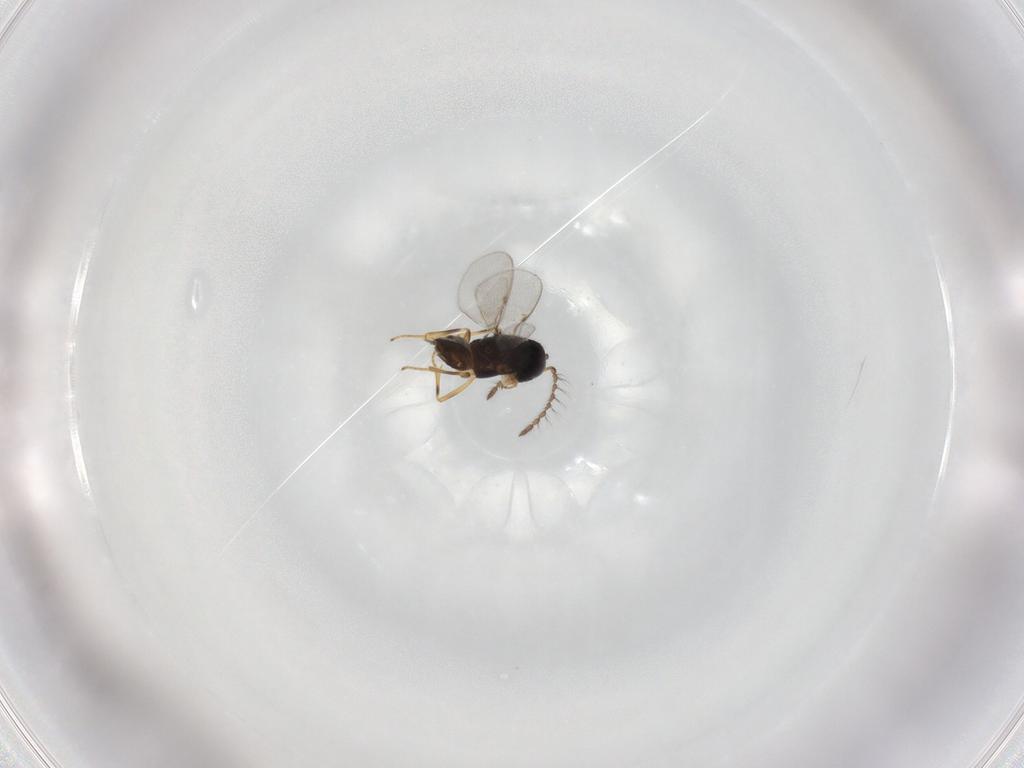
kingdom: Animalia
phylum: Arthropoda
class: Insecta
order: Hymenoptera
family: Encyrtidae
